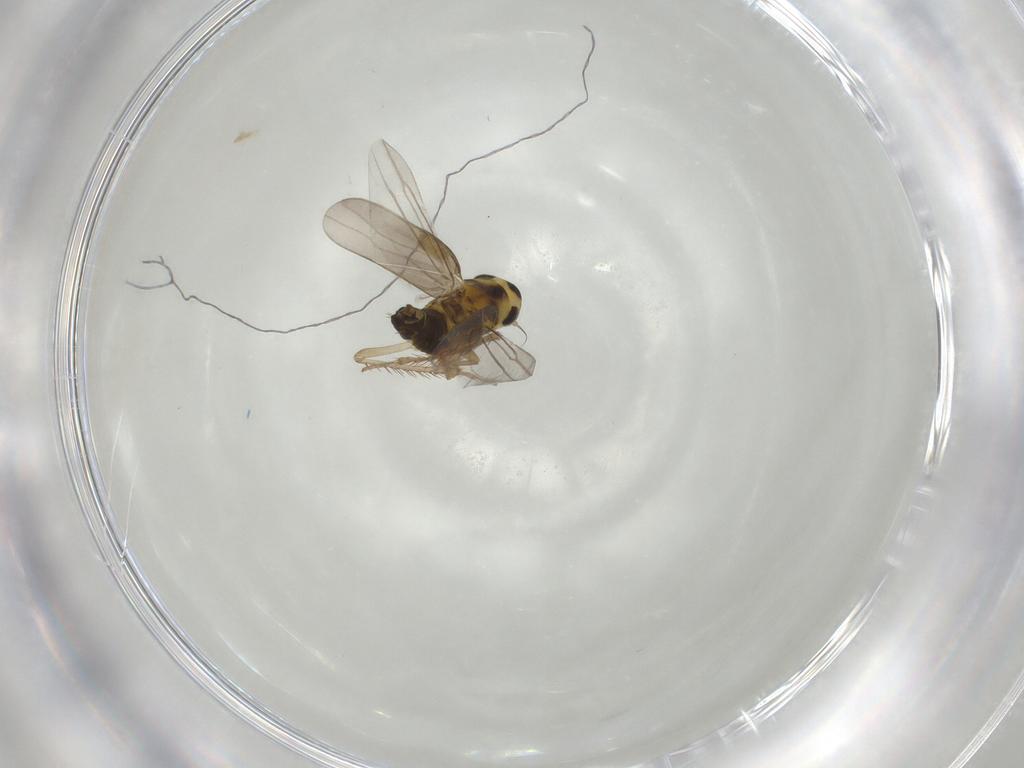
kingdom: Animalia
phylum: Arthropoda
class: Insecta
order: Hemiptera
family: Cicadellidae
